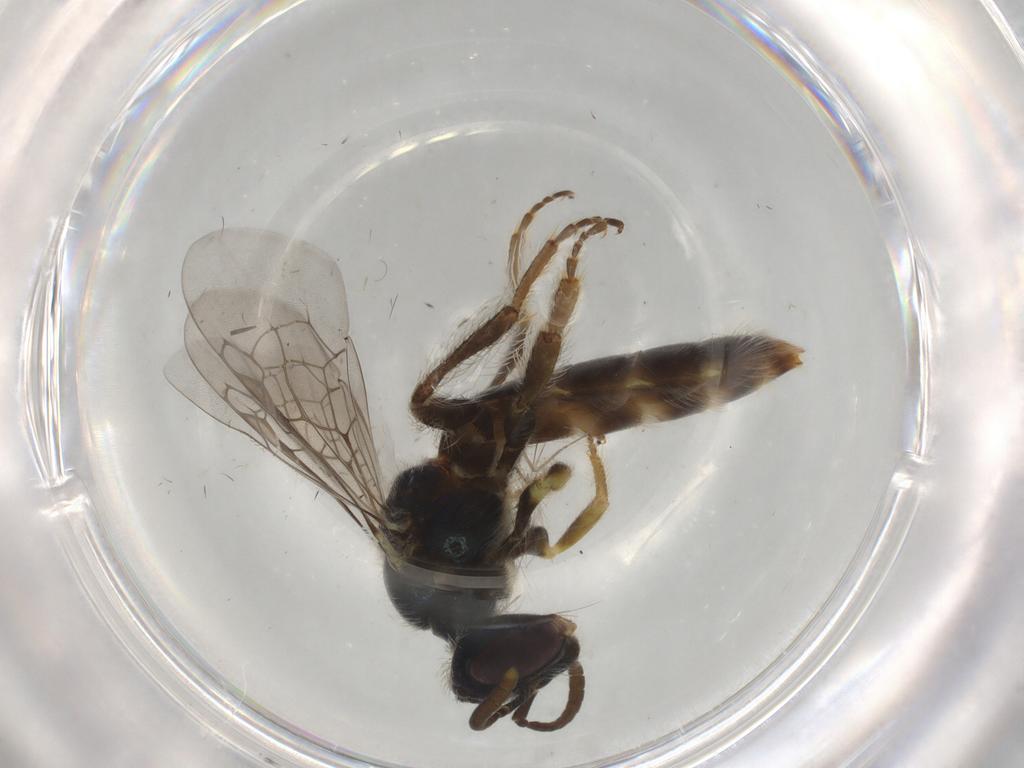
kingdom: Animalia
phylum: Arthropoda
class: Insecta
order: Hymenoptera
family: Andrenidae
